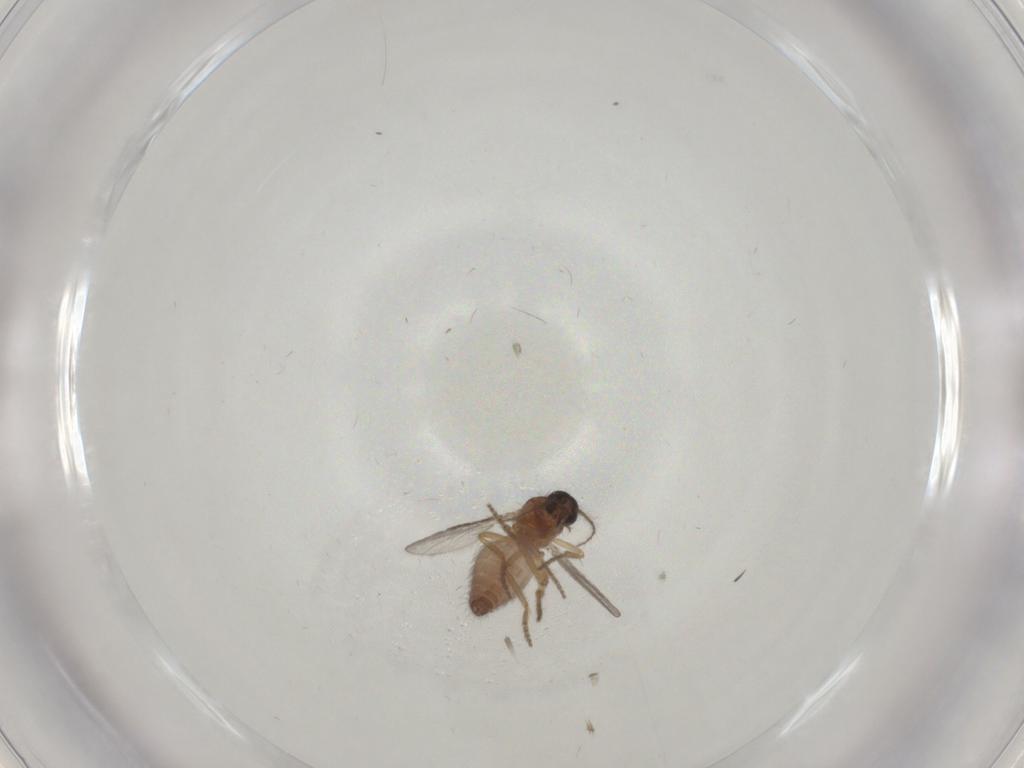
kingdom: Animalia
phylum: Arthropoda
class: Insecta
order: Diptera
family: Ceratopogonidae
